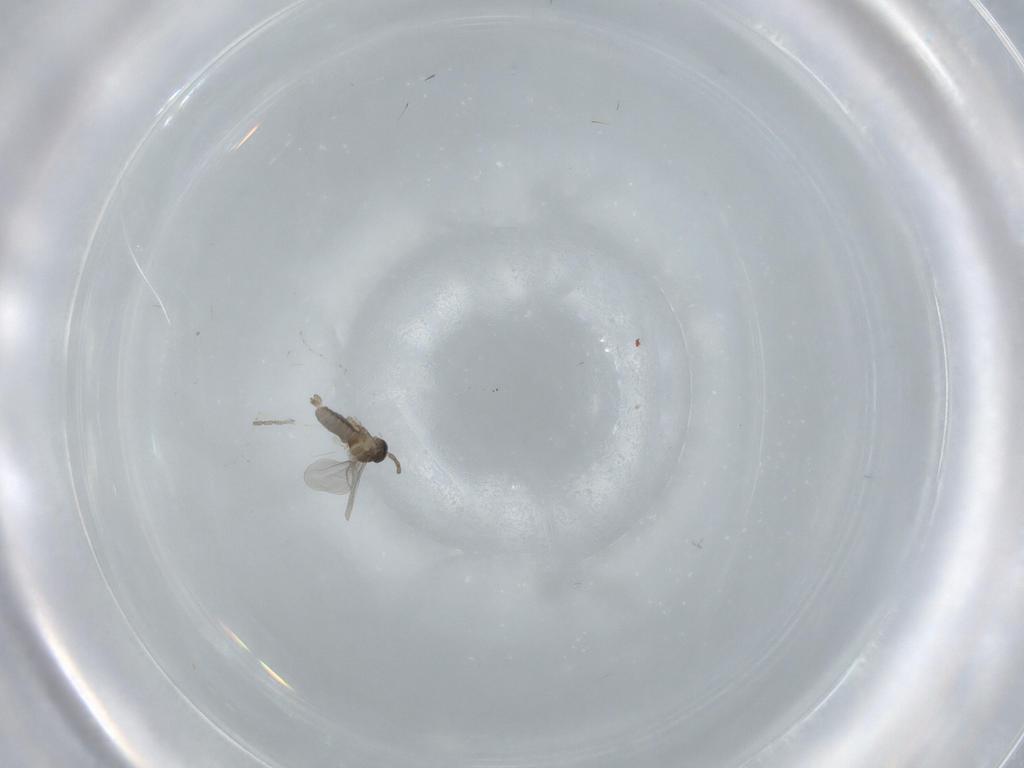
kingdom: Animalia
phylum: Arthropoda
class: Insecta
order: Diptera
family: Cecidomyiidae
